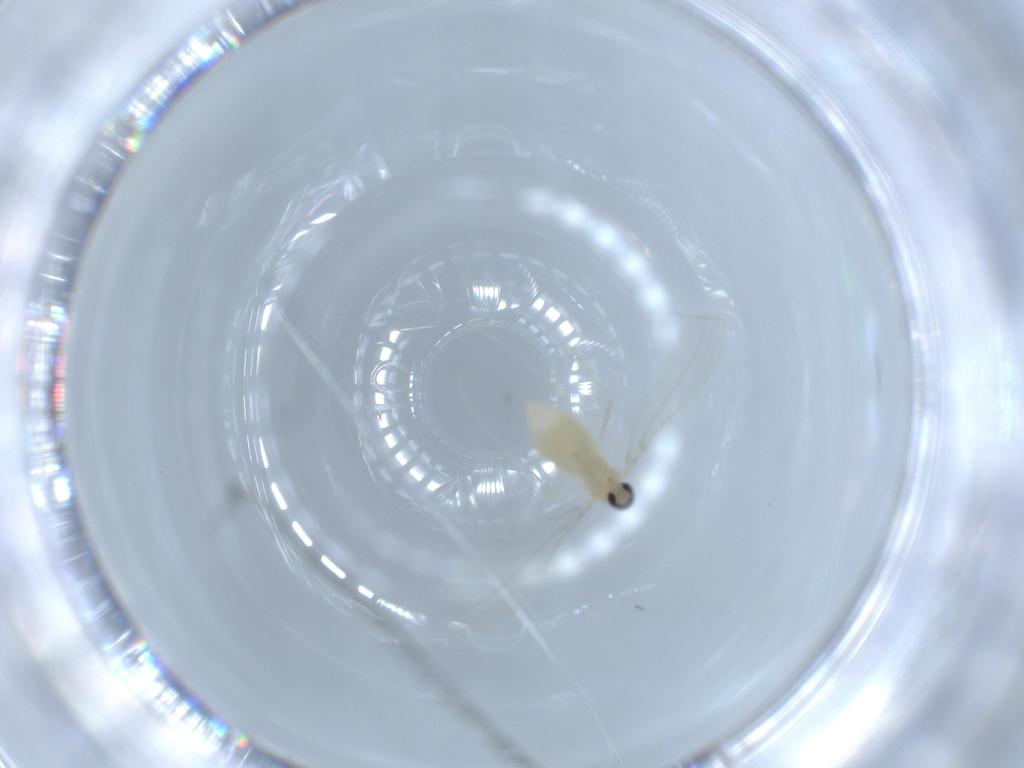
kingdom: Animalia
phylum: Arthropoda
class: Insecta
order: Diptera
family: Cecidomyiidae
